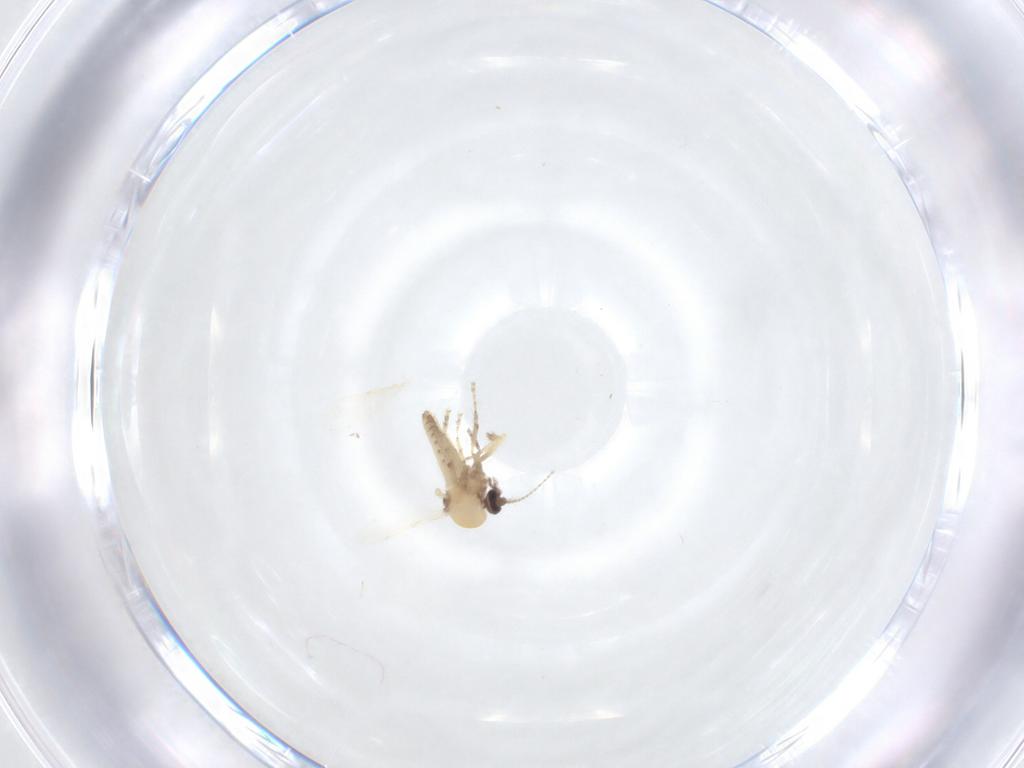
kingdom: Animalia
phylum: Arthropoda
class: Insecta
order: Diptera
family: Ceratopogonidae
